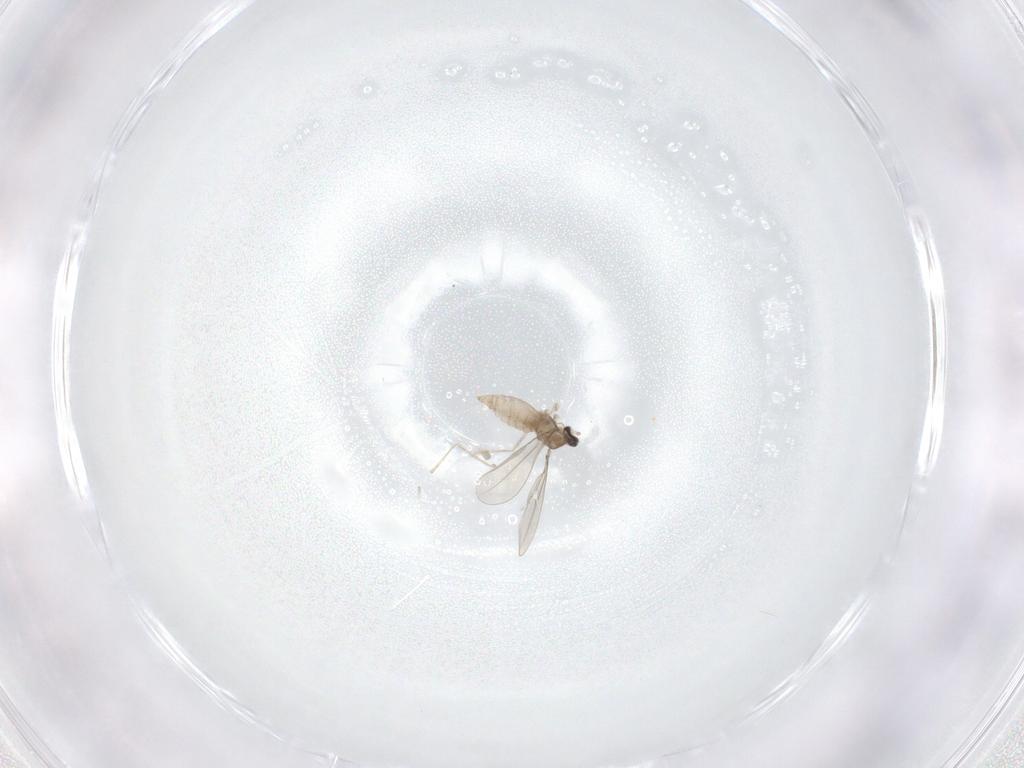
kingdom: Animalia
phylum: Arthropoda
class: Insecta
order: Diptera
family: Cecidomyiidae
